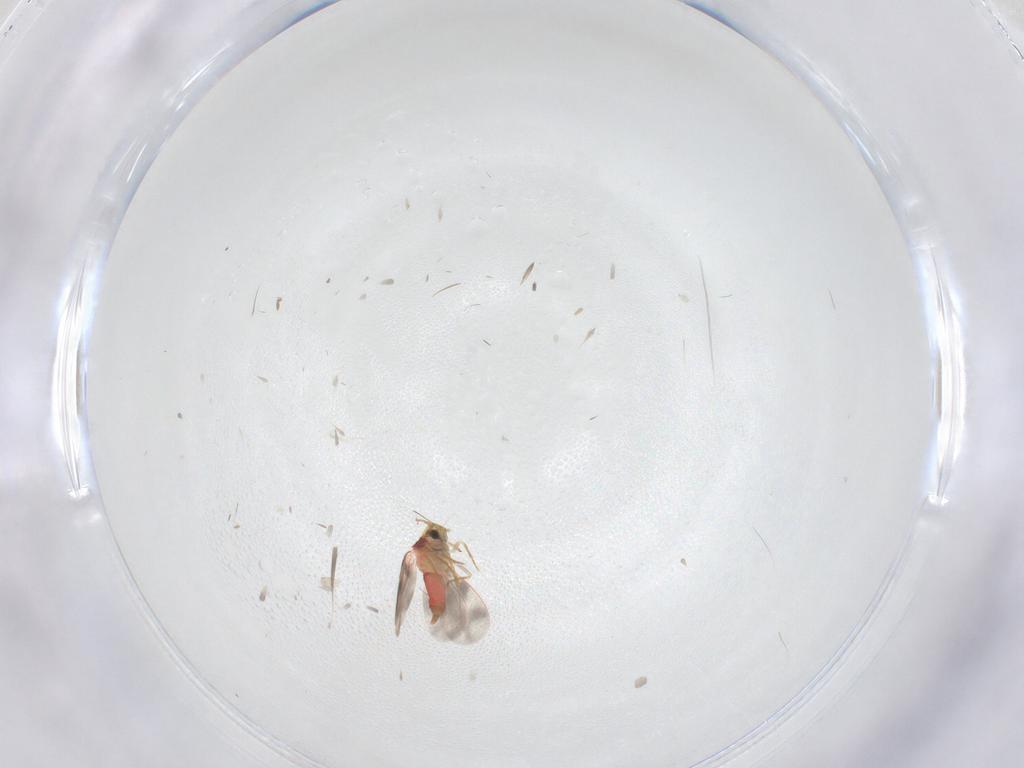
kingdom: Animalia
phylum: Arthropoda
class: Insecta
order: Hemiptera
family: Aleyrodidae
